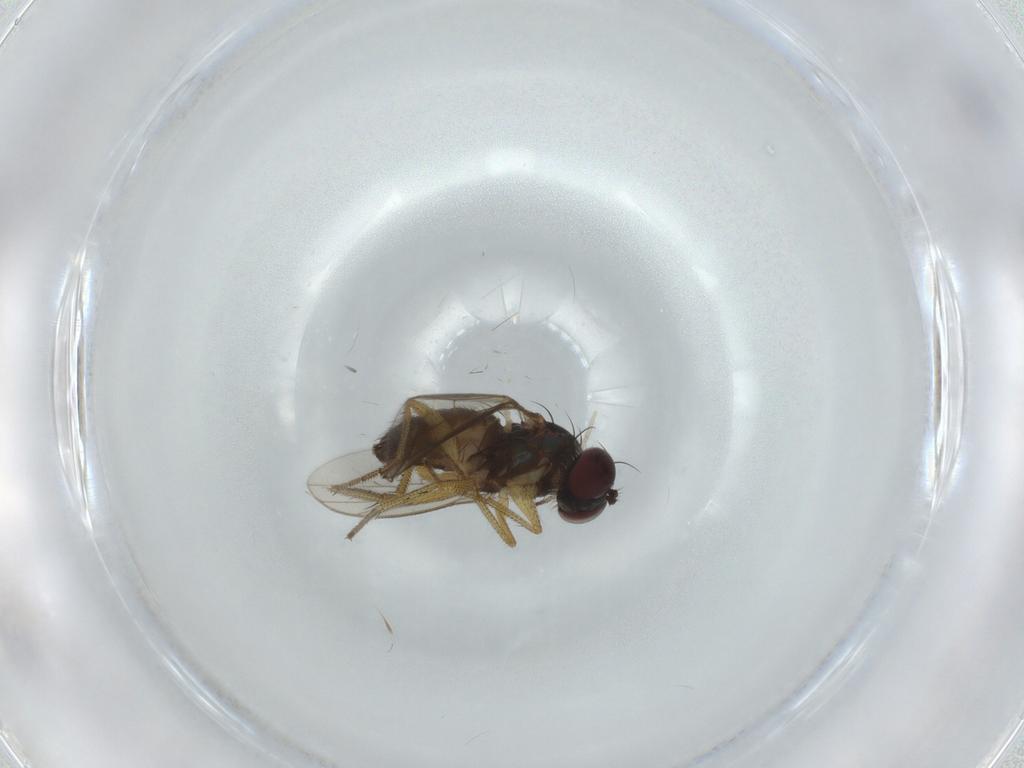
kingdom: Animalia
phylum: Arthropoda
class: Insecta
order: Diptera
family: Dolichopodidae
